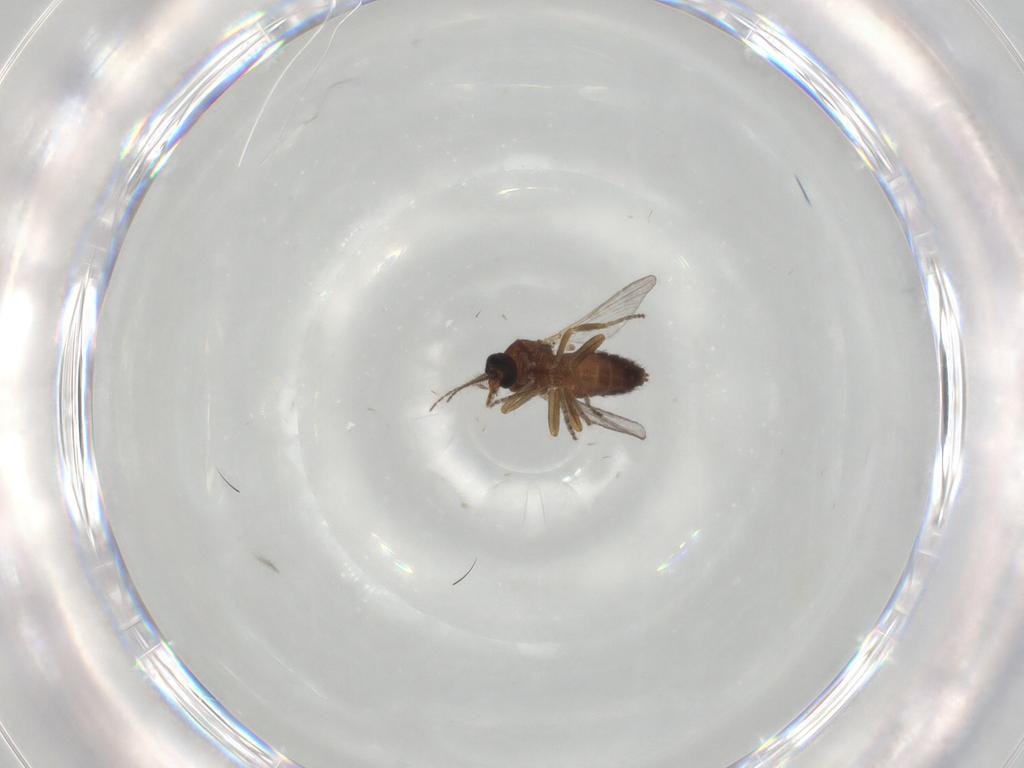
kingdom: Animalia
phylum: Arthropoda
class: Insecta
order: Diptera
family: Ceratopogonidae
